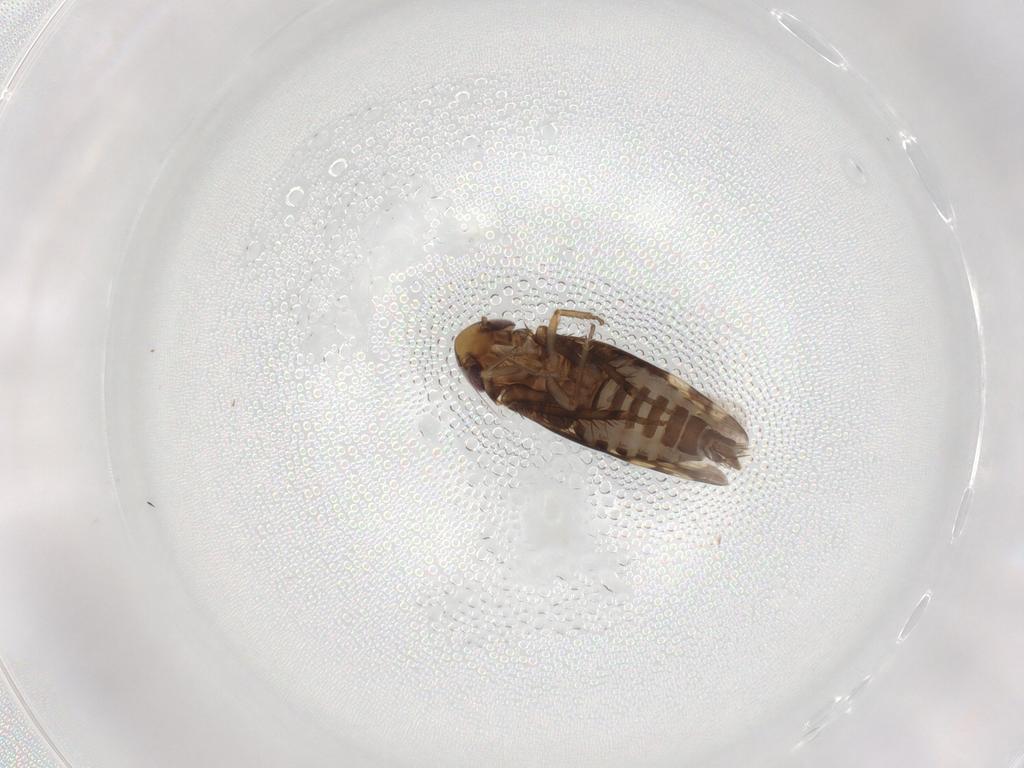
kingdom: Animalia
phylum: Arthropoda
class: Insecta
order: Hemiptera
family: Cicadellidae
